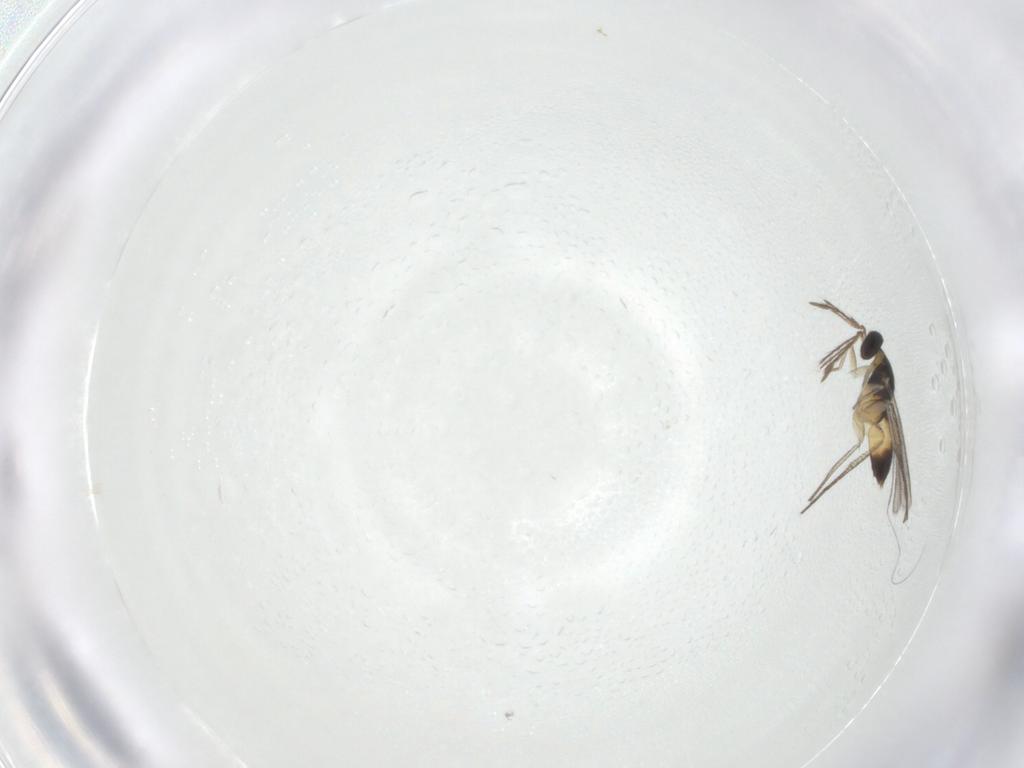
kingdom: Animalia
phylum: Arthropoda
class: Insecta
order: Hymenoptera
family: Eulophidae
